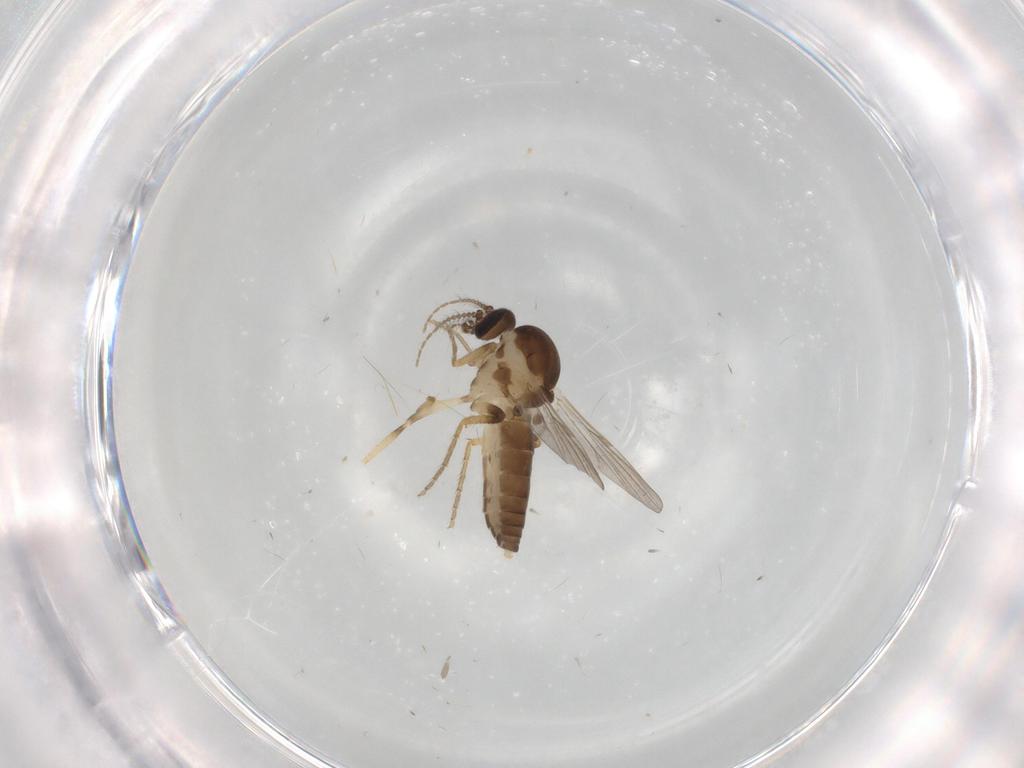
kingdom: Animalia
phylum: Arthropoda
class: Insecta
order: Diptera
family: Ceratopogonidae
